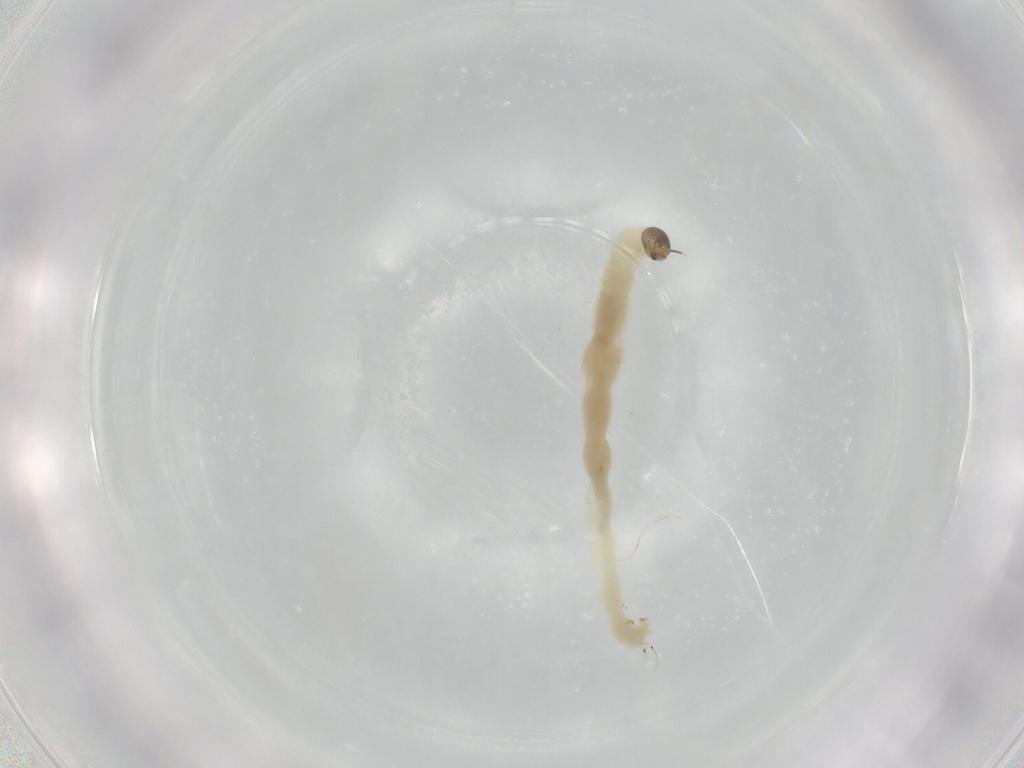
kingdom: Animalia
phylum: Arthropoda
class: Insecta
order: Diptera
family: Chironomidae
